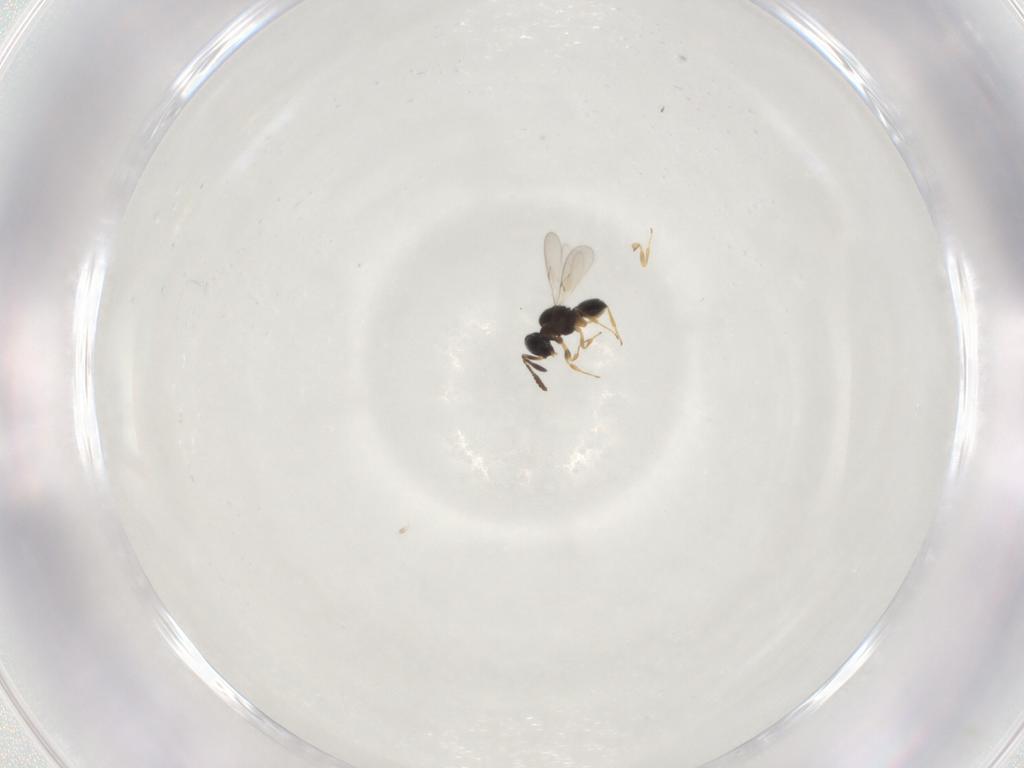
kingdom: Animalia
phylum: Arthropoda
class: Insecta
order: Hymenoptera
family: Scelionidae
